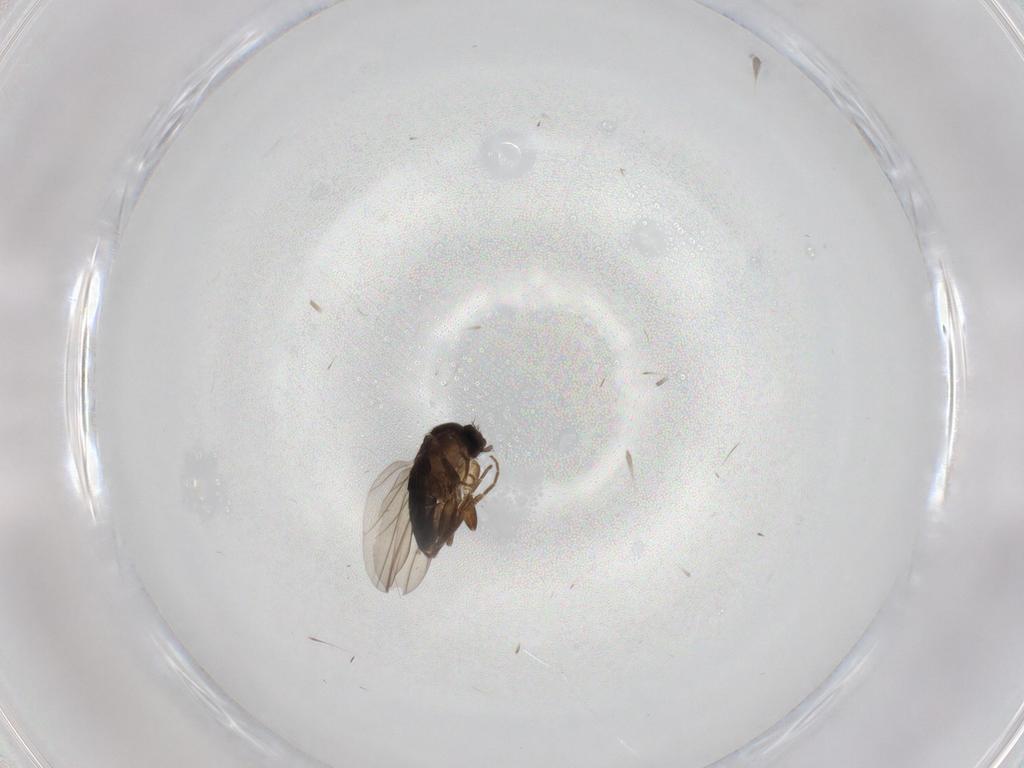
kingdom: Animalia
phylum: Arthropoda
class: Insecta
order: Diptera
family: Phoridae
